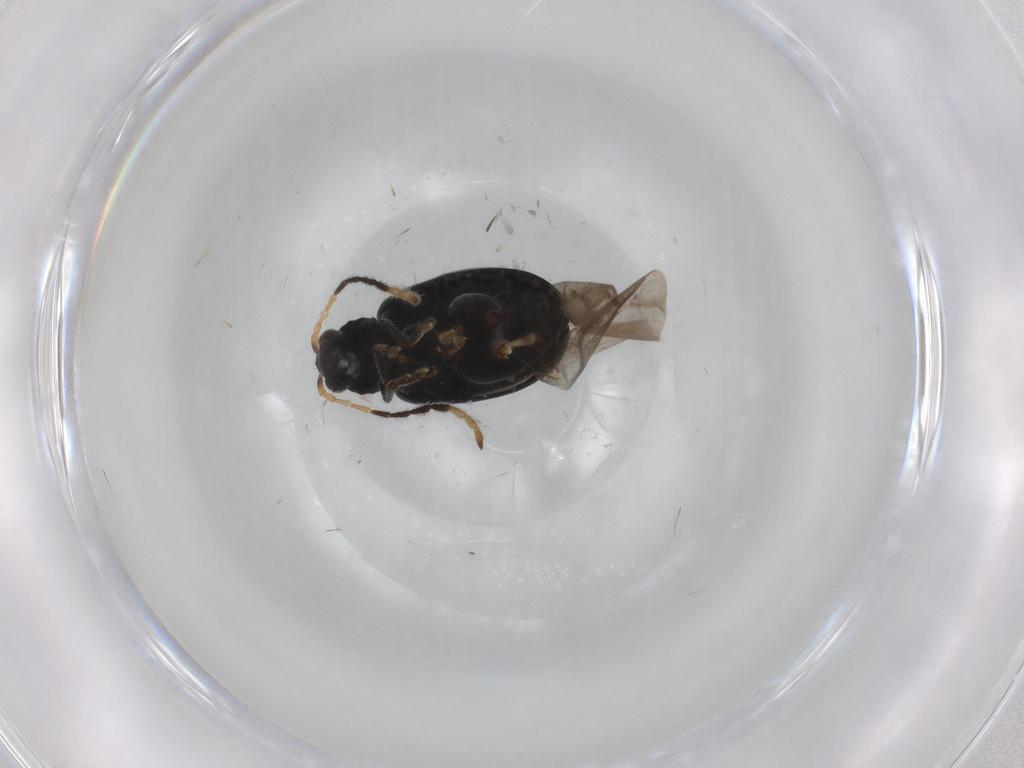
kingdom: Animalia
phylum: Arthropoda
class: Insecta
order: Coleoptera
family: Chrysomelidae
